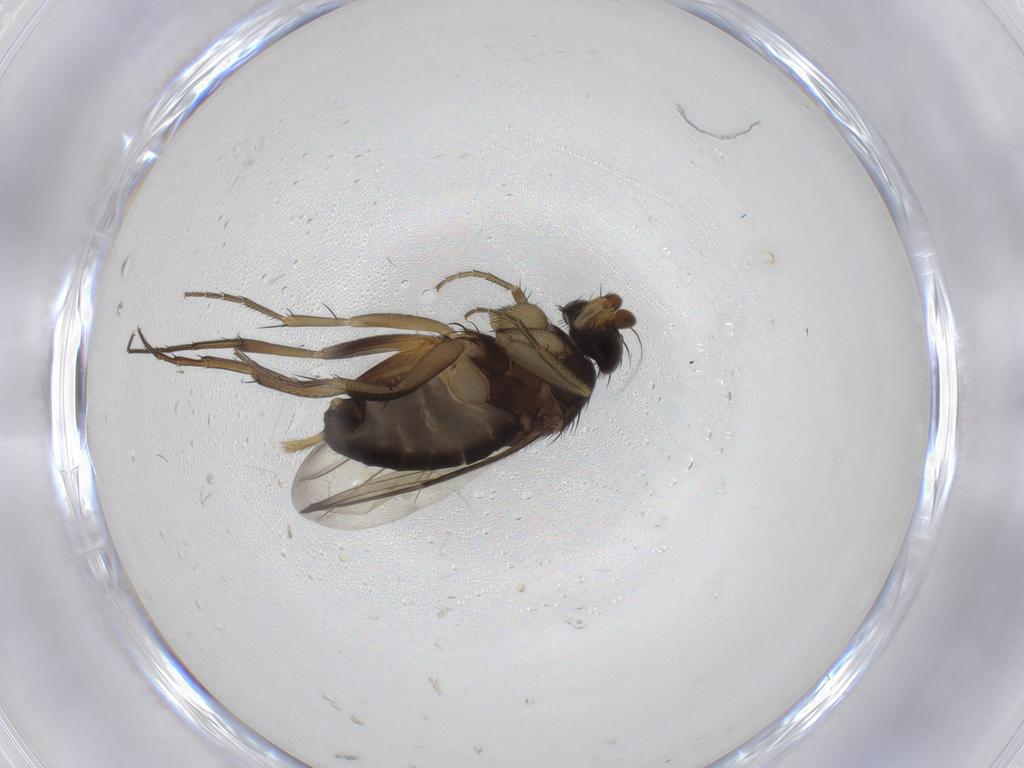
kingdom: Animalia
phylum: Arthropoda
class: Insecta
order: Diptera
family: Phoridae
